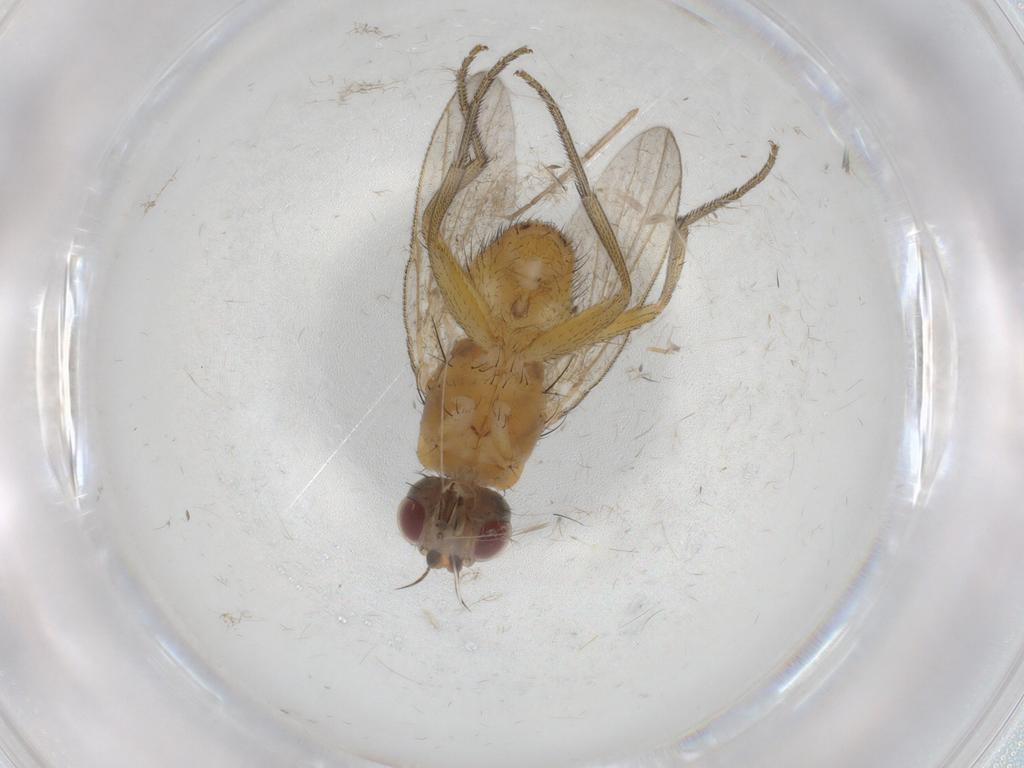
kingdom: Animalia
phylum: Arthropoda
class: Insecta
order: Diptera
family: Muscidae
